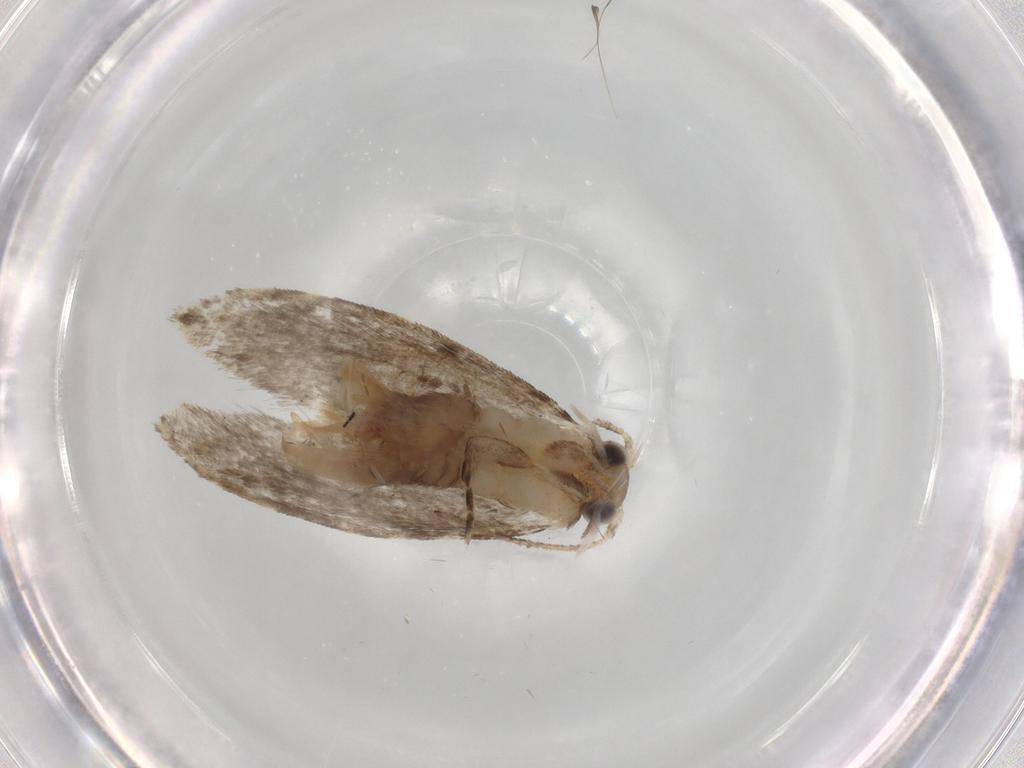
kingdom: Animalia
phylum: Arthropoda
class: Insecta
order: Lepidoptera
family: Tineidae
